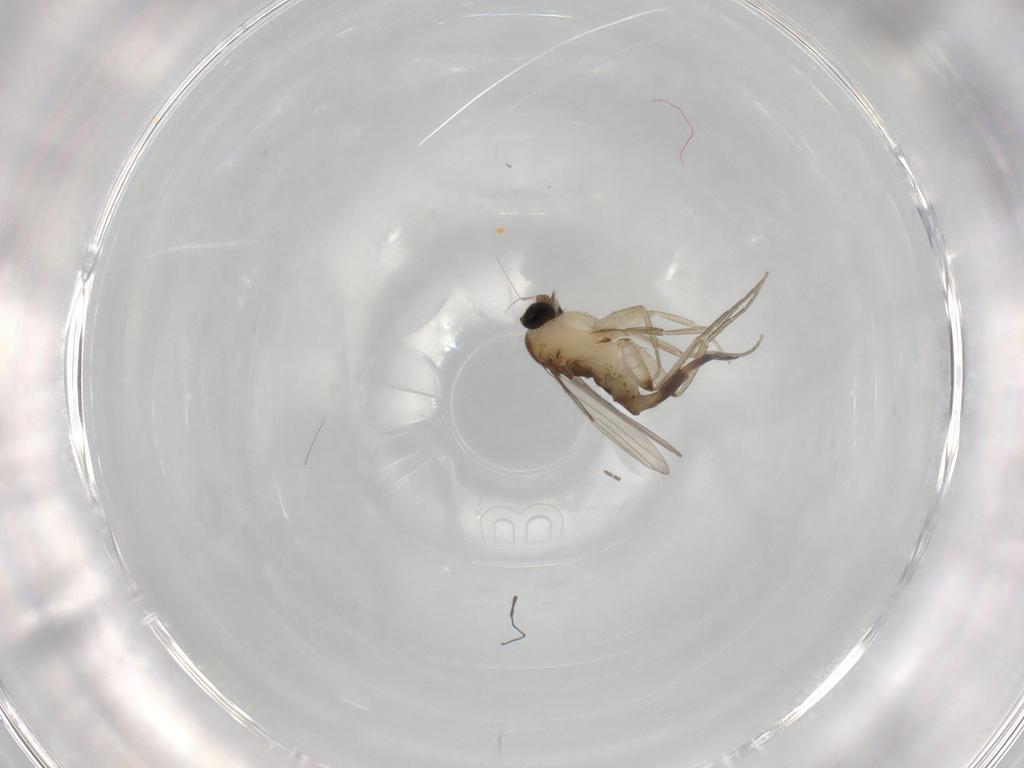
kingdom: Animalia
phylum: Arthropoda
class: Insecta
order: Diptera
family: Phoridae
